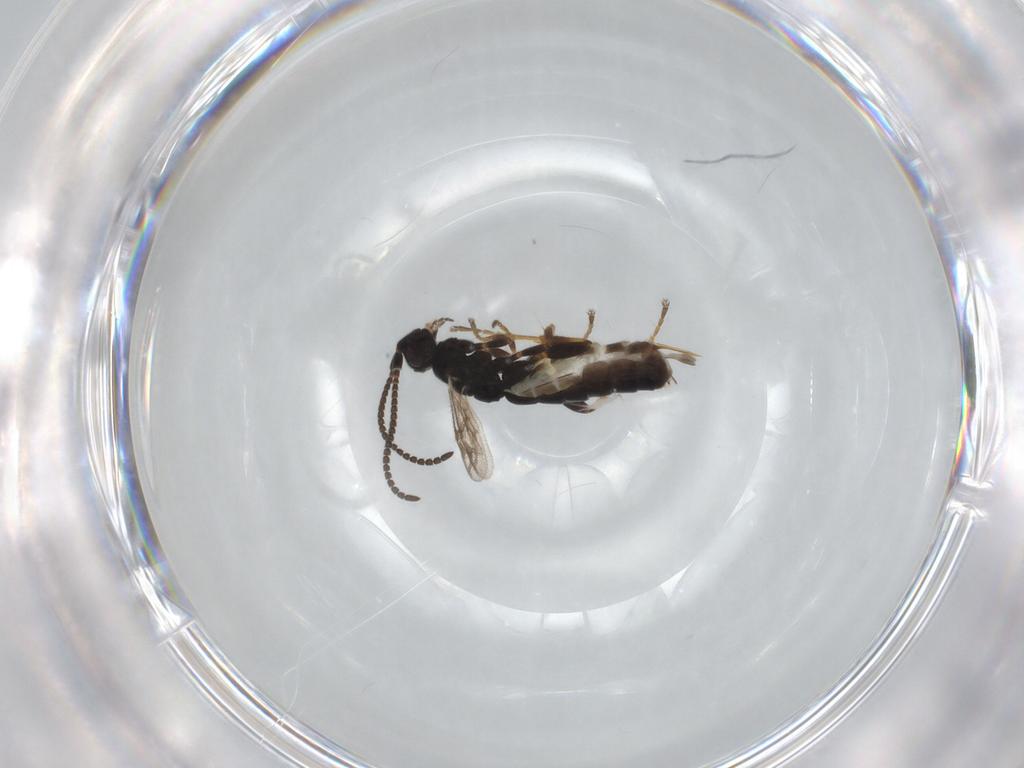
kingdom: Animalia
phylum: Arthropoda
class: Insecta
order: Hymenoptera
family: Ichneumonidae
